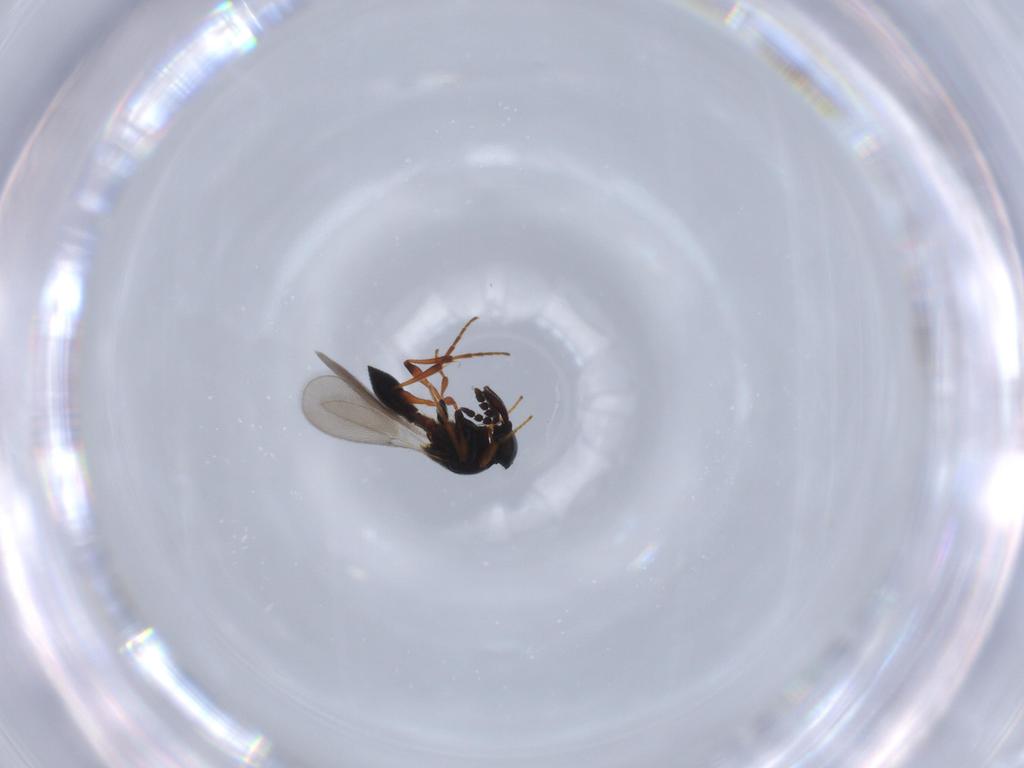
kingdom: Animalia
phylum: Arthropoda
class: Insecta
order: Hymenoptera
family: Platygastridae
